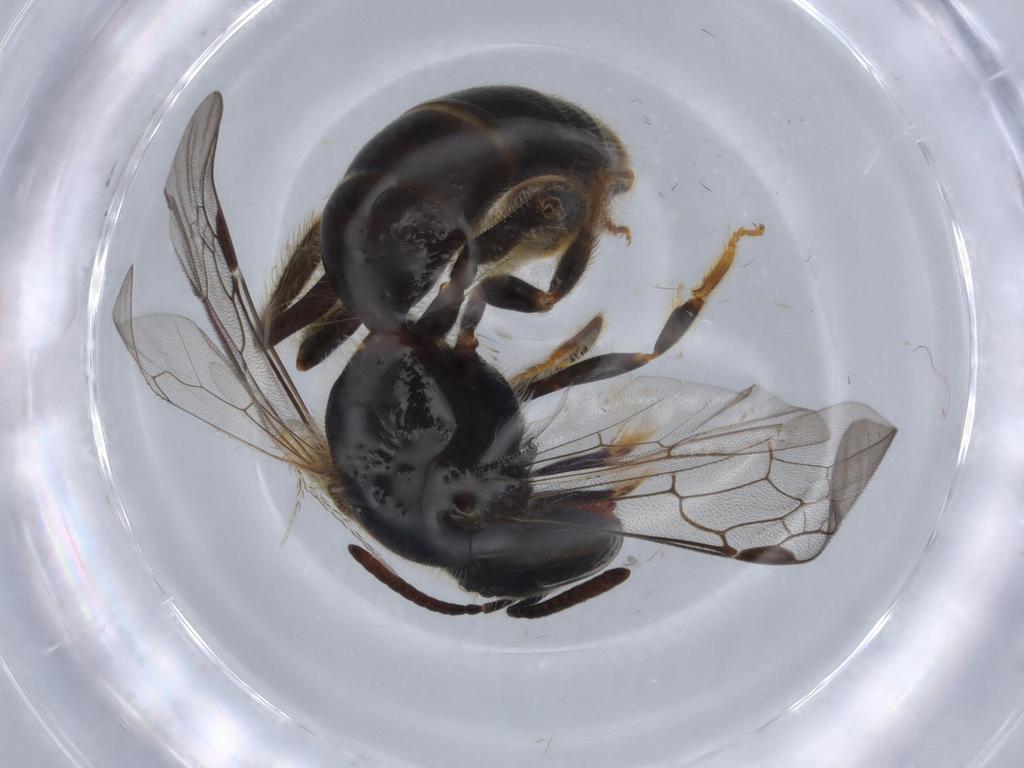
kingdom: Animalia
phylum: Arthropoda
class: Insecta
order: Hymenoptera
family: Halictidae
